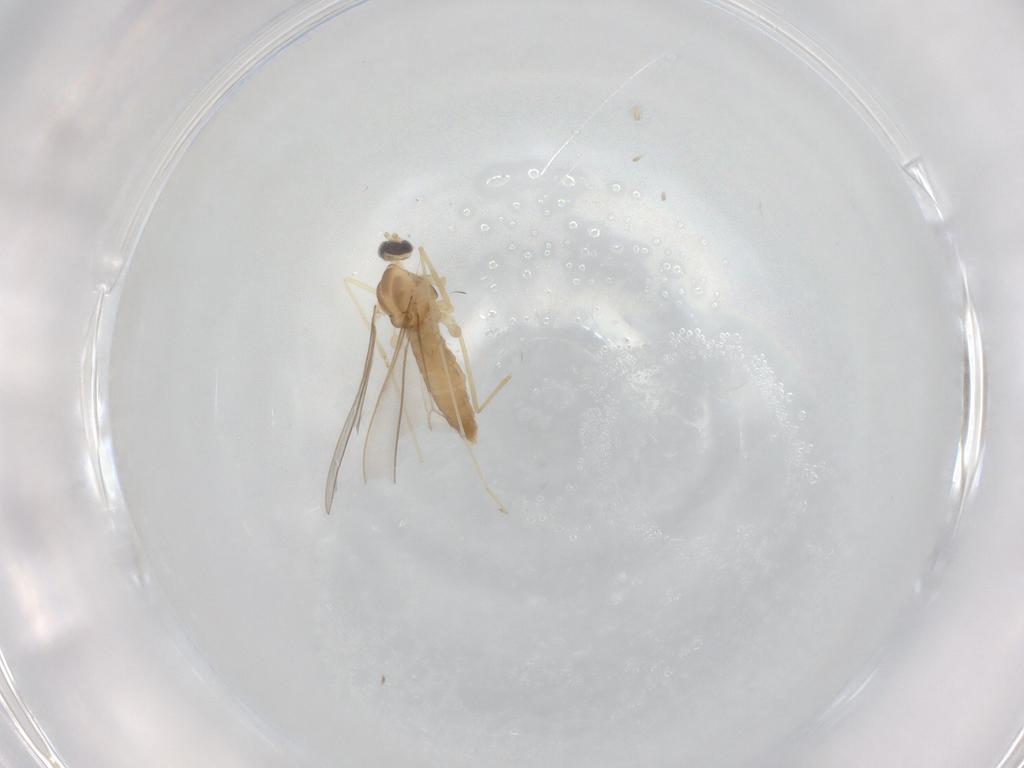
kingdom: Animalia
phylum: Arthropoda
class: Insecta
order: Diptera
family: Cecidomyiidae
